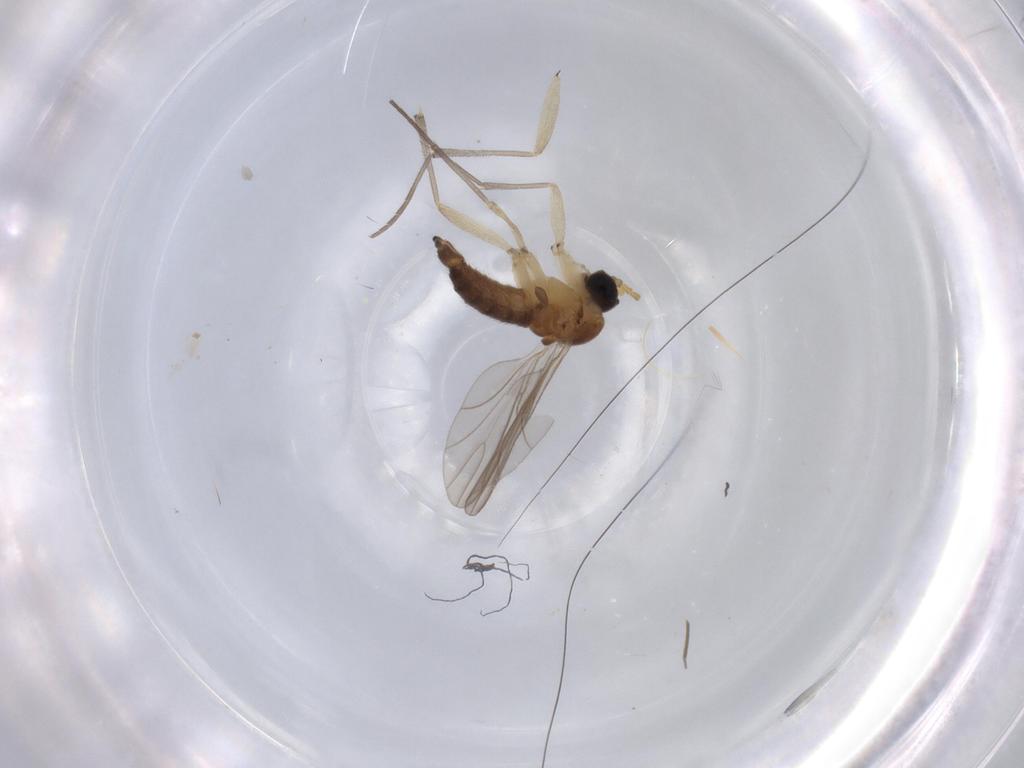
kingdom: Animalia
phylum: Arthropoda
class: Insecta
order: Diptera
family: Sciaridae
